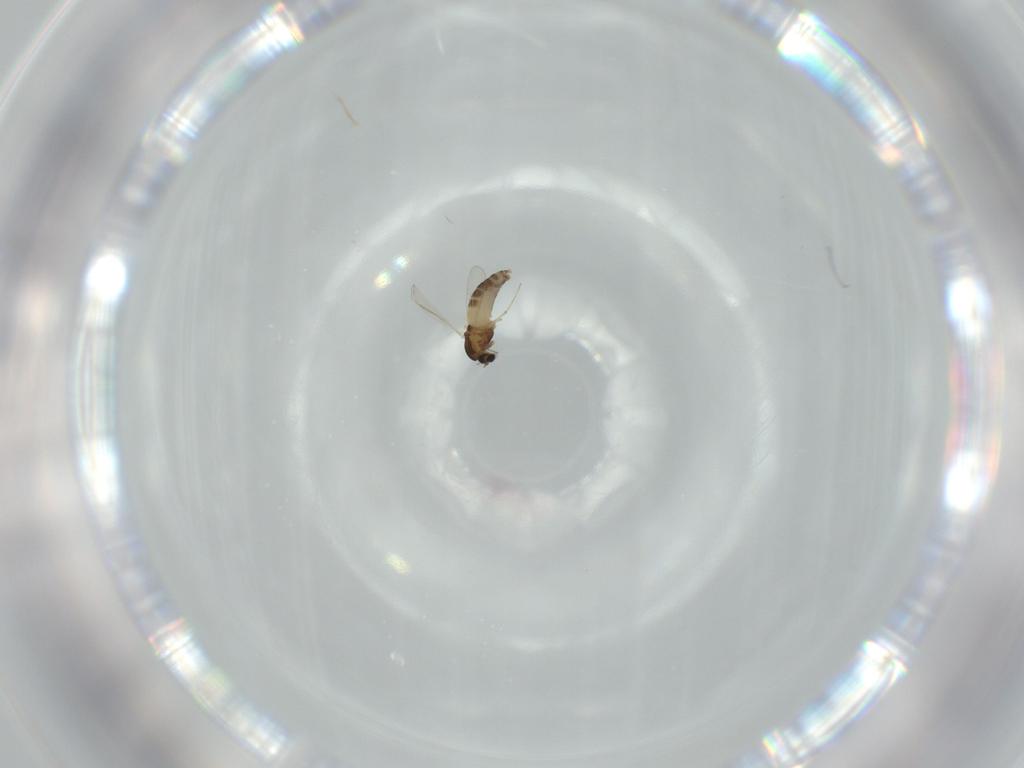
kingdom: Animalia
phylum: Arthropoda
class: Insecta
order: Diptera
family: Chironomidae
